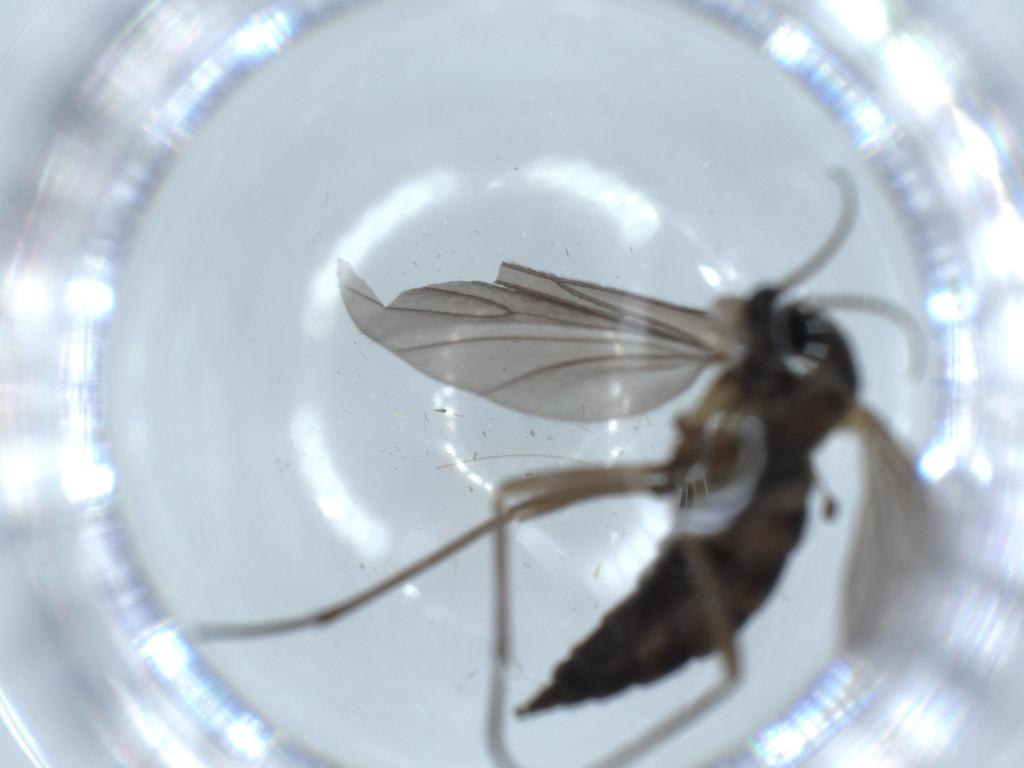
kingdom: Animalia
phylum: Arthropoda
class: Insecta
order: Diptera
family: Sciaridae
